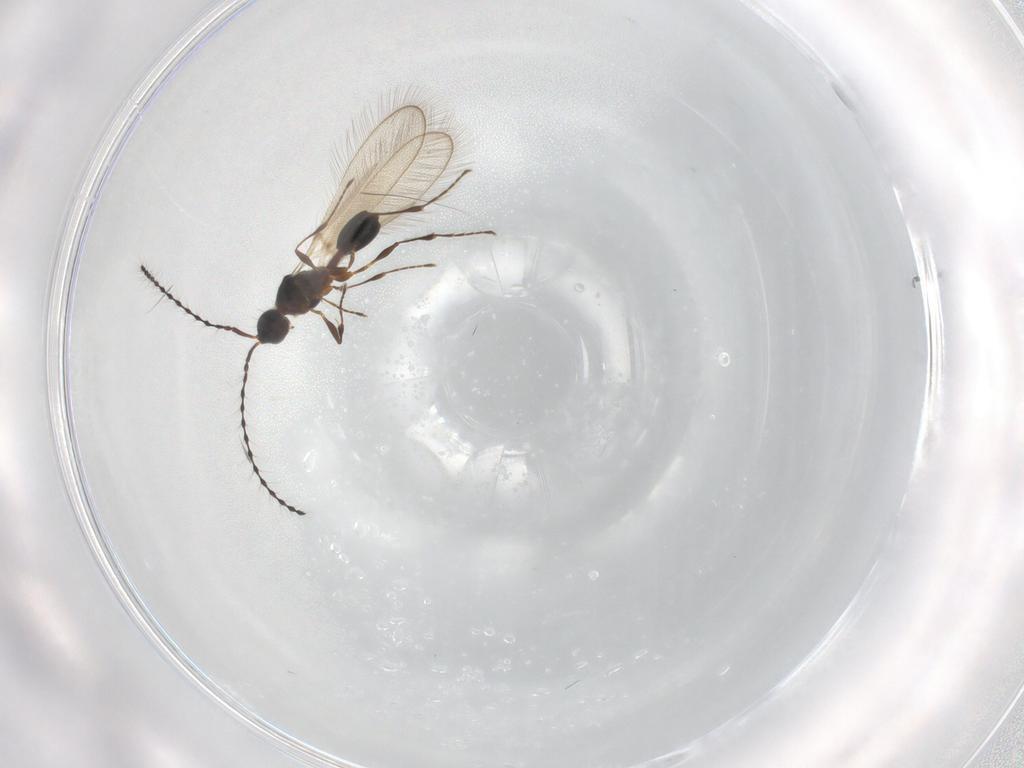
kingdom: Animalia
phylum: Arthropoda
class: Insecta
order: Hymenoptera
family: Diapriidae
